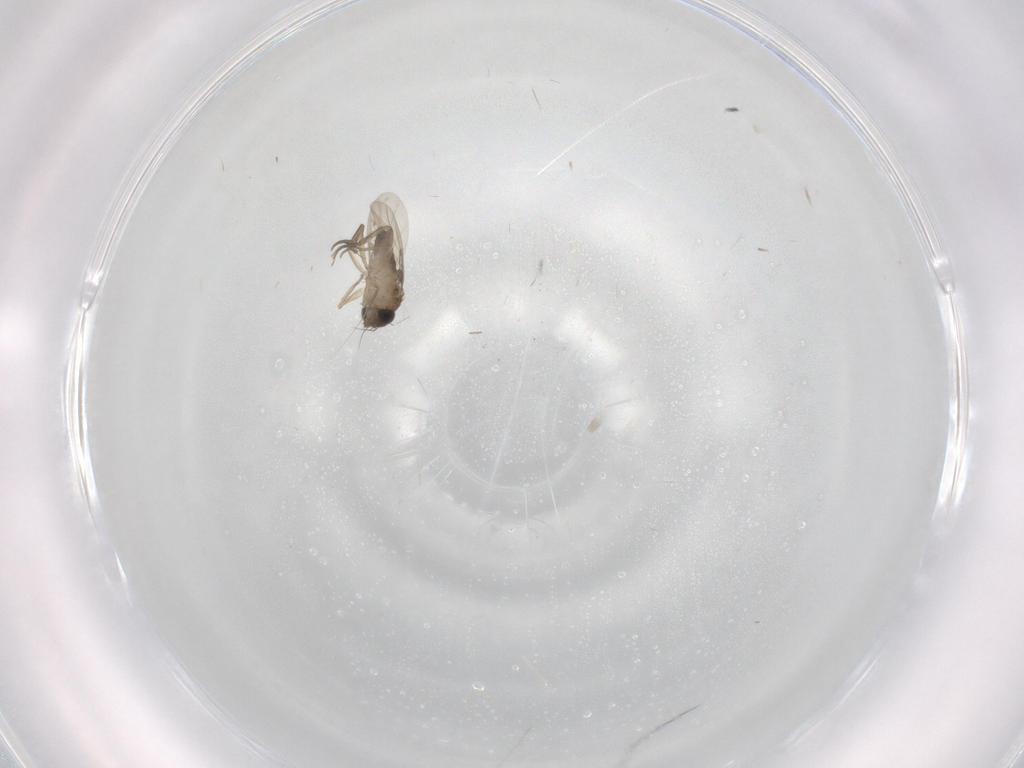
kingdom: Animalia
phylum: Arthropoda
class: Insecta
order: Diptera
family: Phoridae
